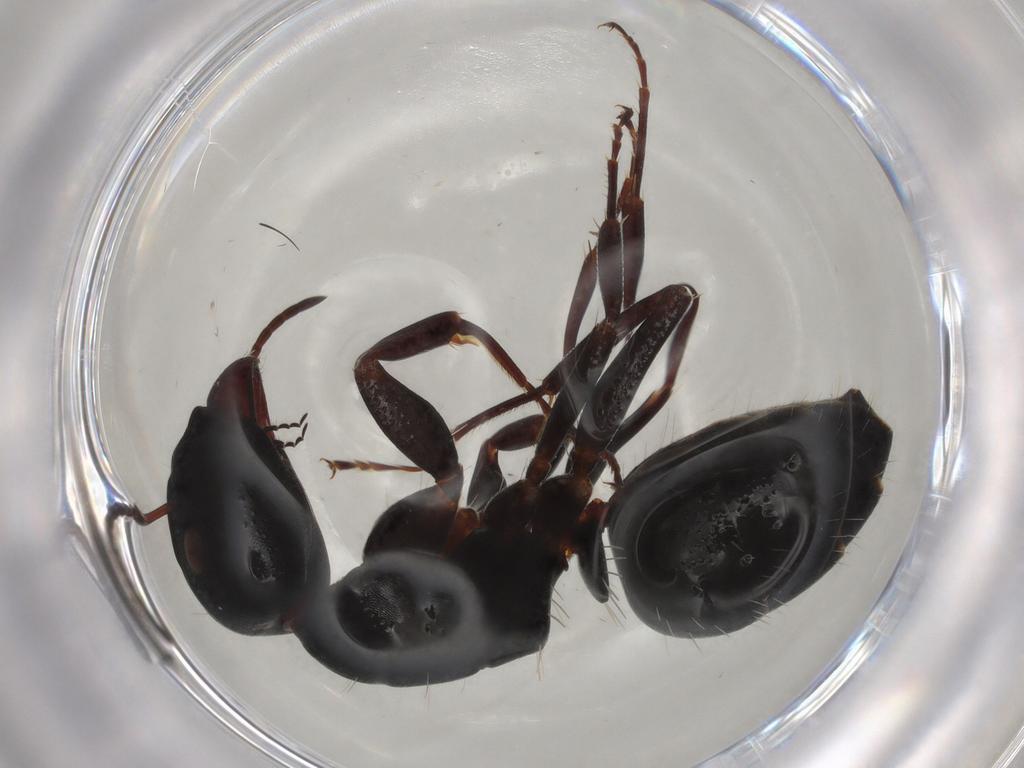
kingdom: Animalia
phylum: Arthropoda
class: Insecta
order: Hymenoptera
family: Formicidae
